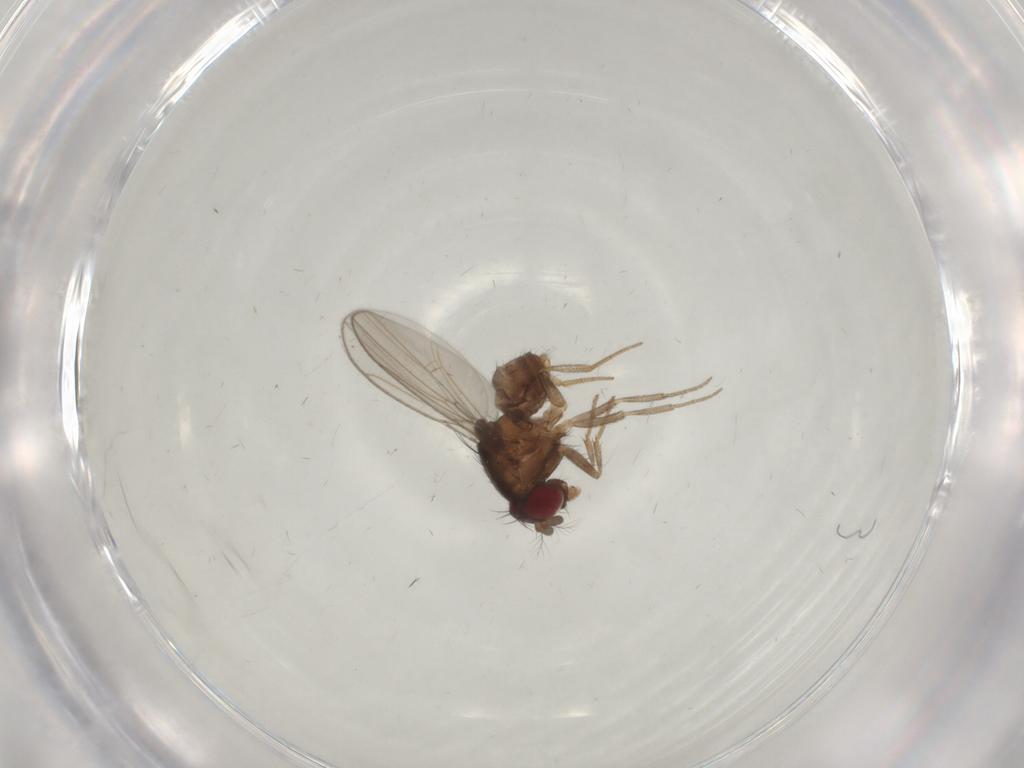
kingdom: Animalia
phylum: Arthropoda
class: Insecta
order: Diptera
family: Drosophilidae
